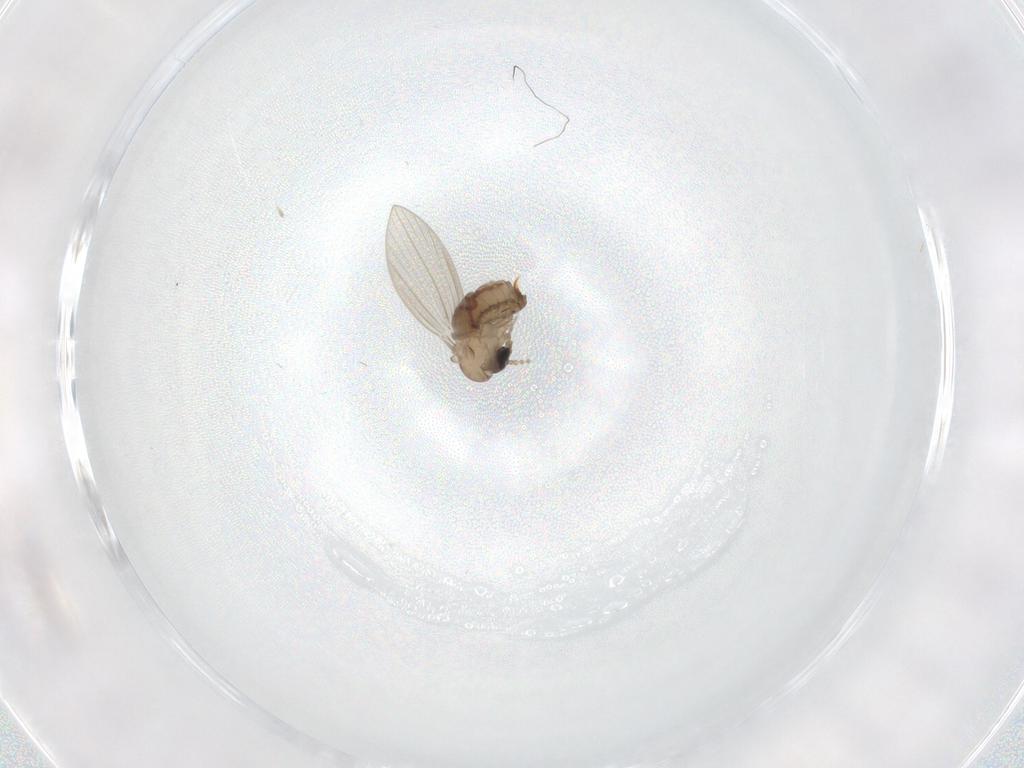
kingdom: Animalia
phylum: Arthropoda
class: Insecta
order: Diptera
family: Psychodidae
